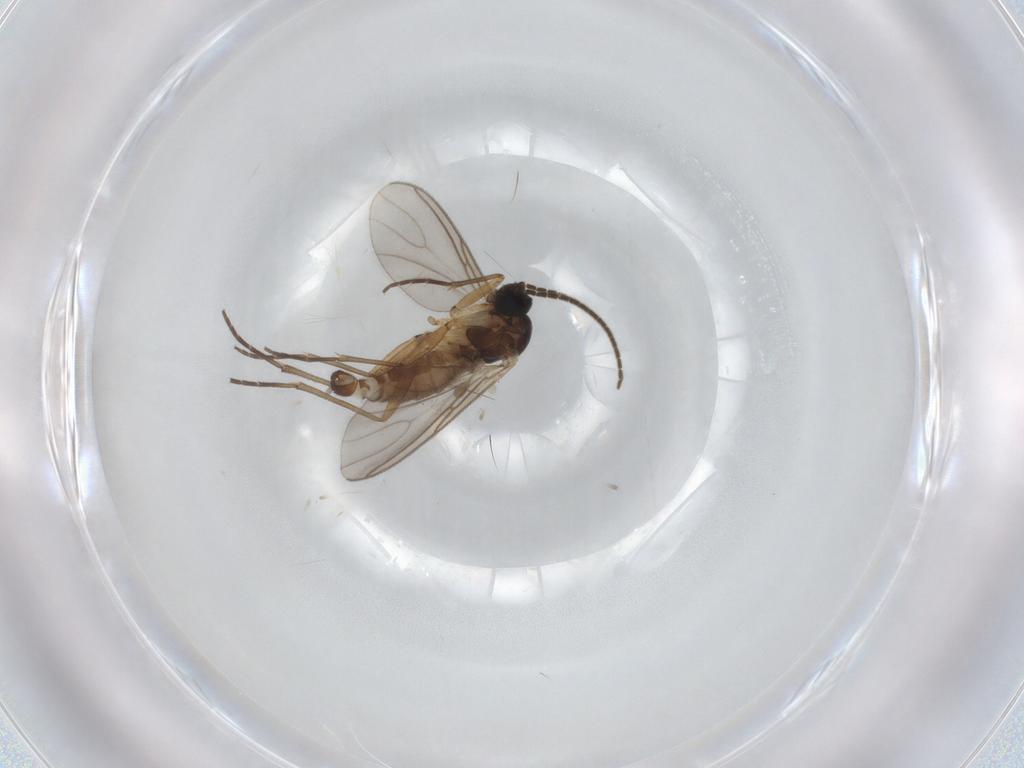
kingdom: Animalia
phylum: Arthropoda
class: Insecta
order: Diptera
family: Sciaridae
